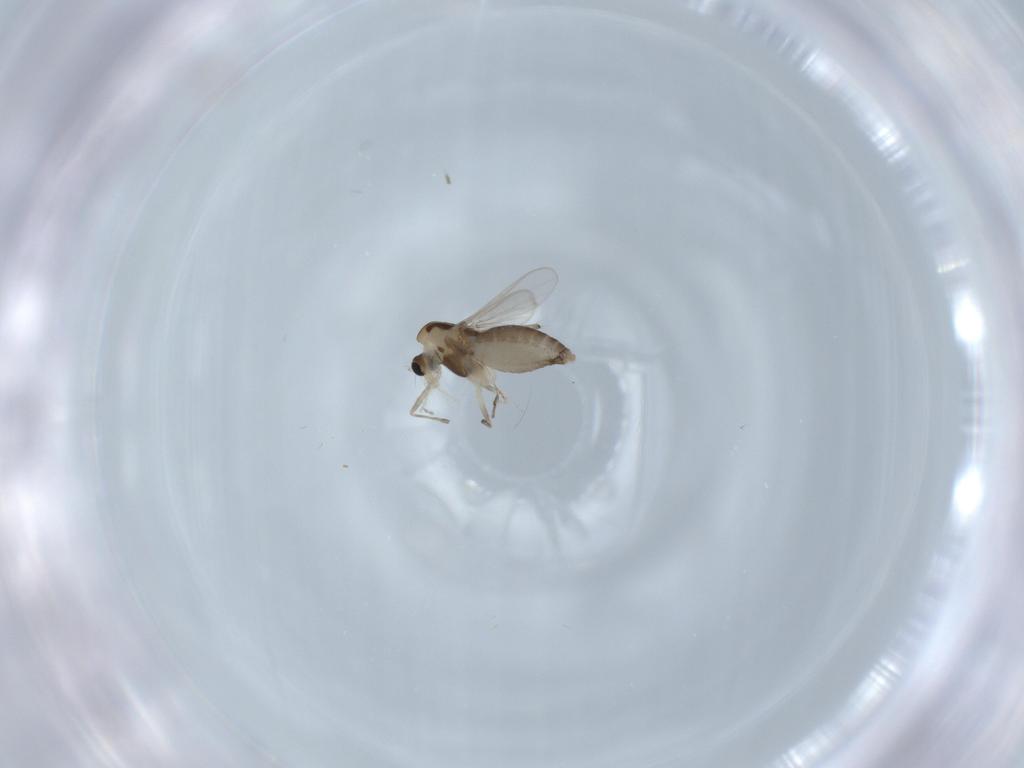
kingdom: Animalia
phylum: Arthropoda
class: Insecta
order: Diptera
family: Chironomidae
